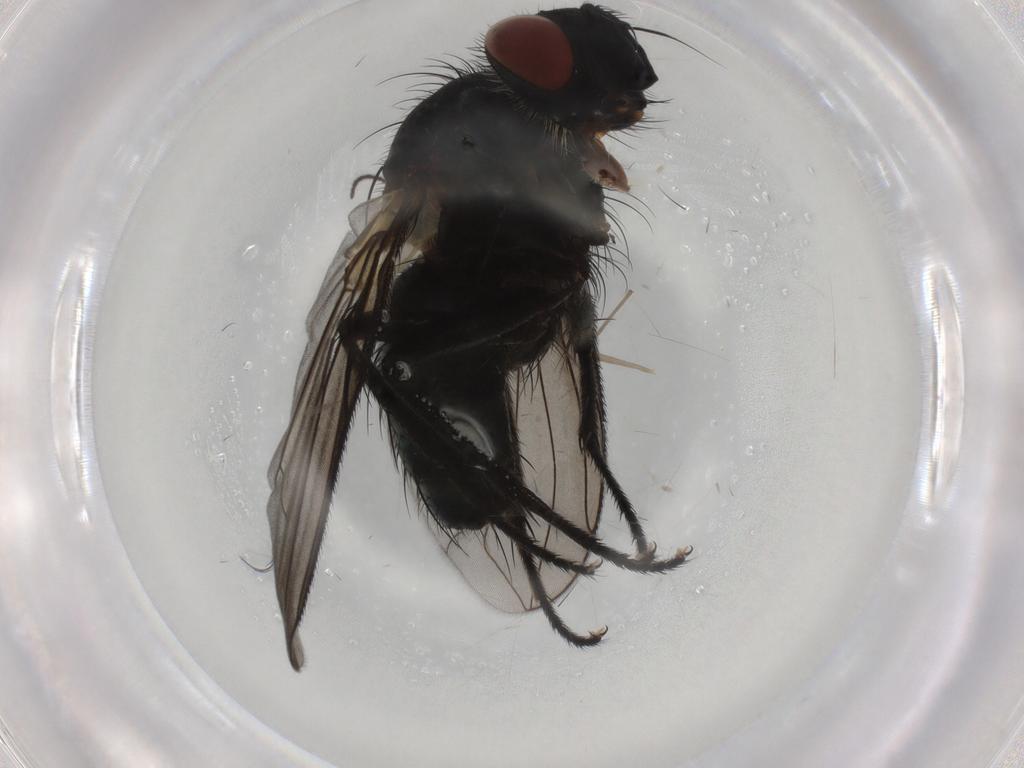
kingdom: Animalia
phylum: Arthropoda
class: Insecta
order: Diptera
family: Tachinidae
